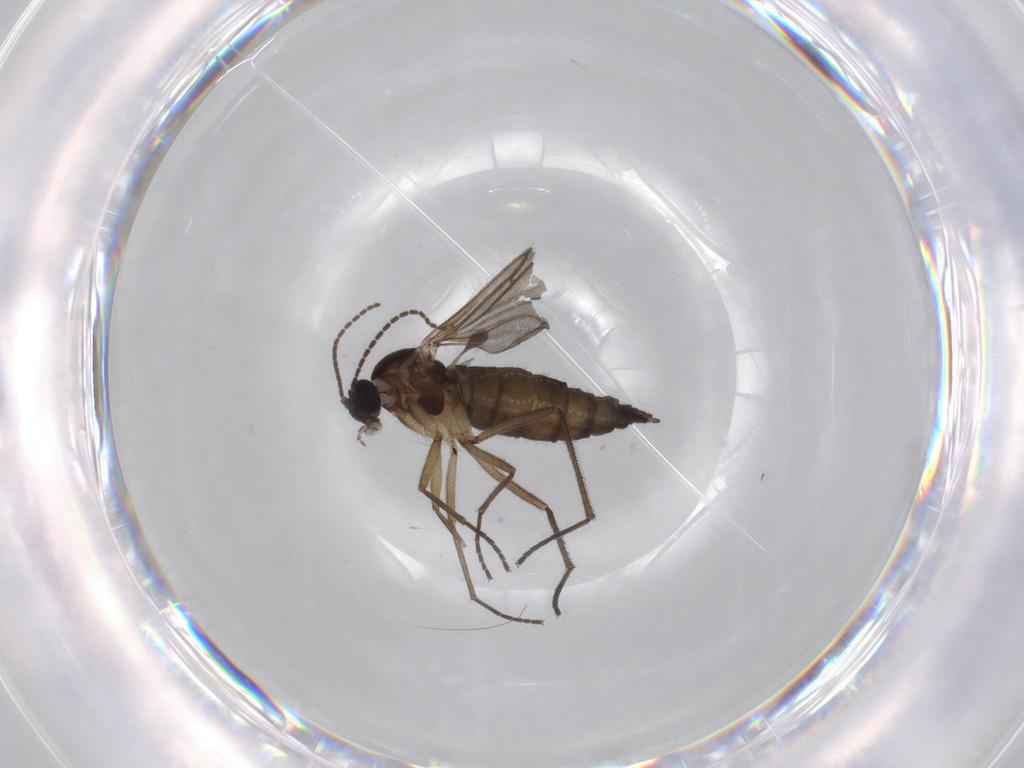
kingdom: Animalia
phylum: Arthropoda
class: Insecta
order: Diptera
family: Sciaridae
